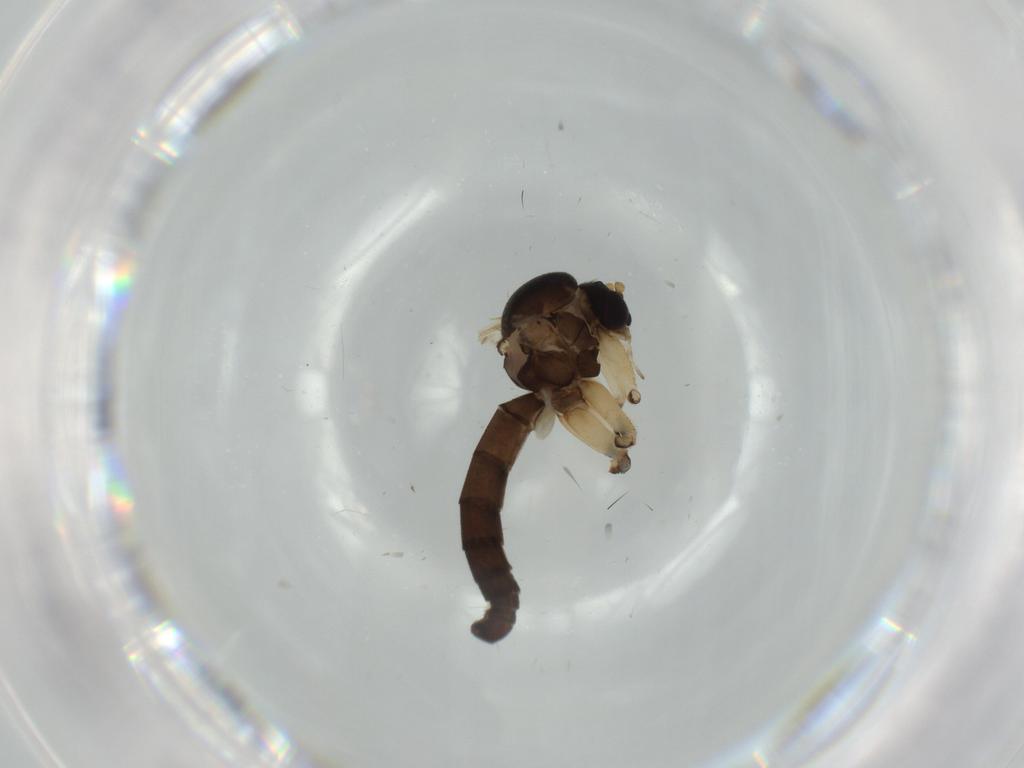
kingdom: Animalia
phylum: Arthropoda
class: Insecta
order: Diptera
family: Mycetophilidae
